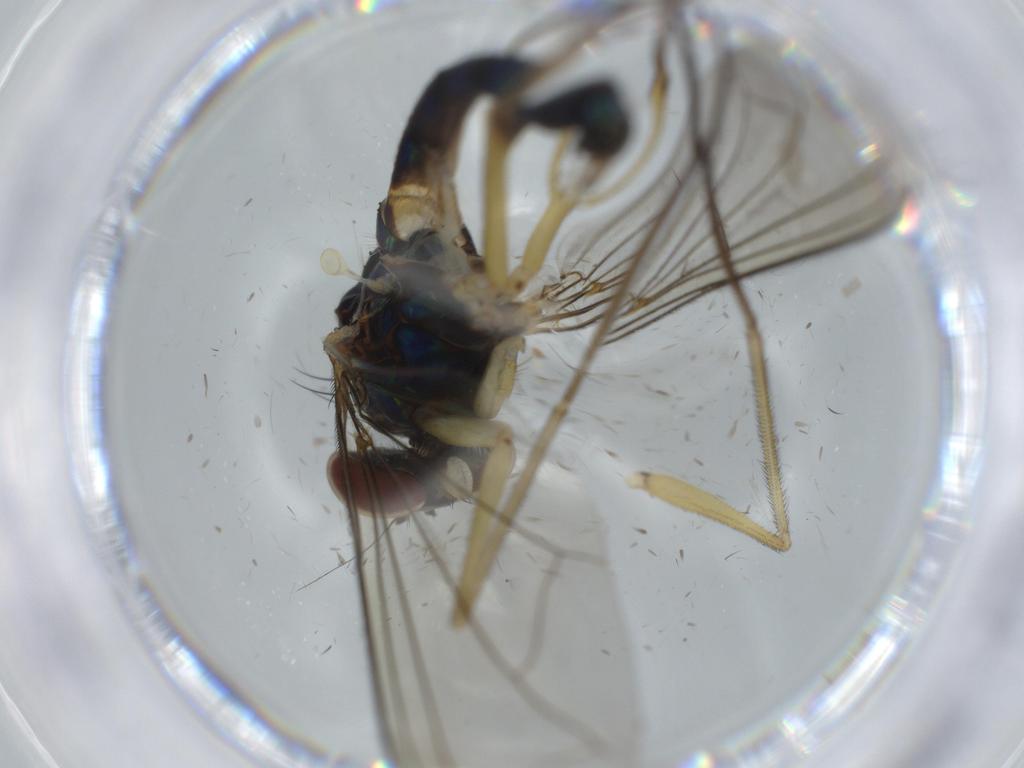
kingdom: Animalia
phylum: Arthropoda
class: Insecta
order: Diptera
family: Dolichopodidae
